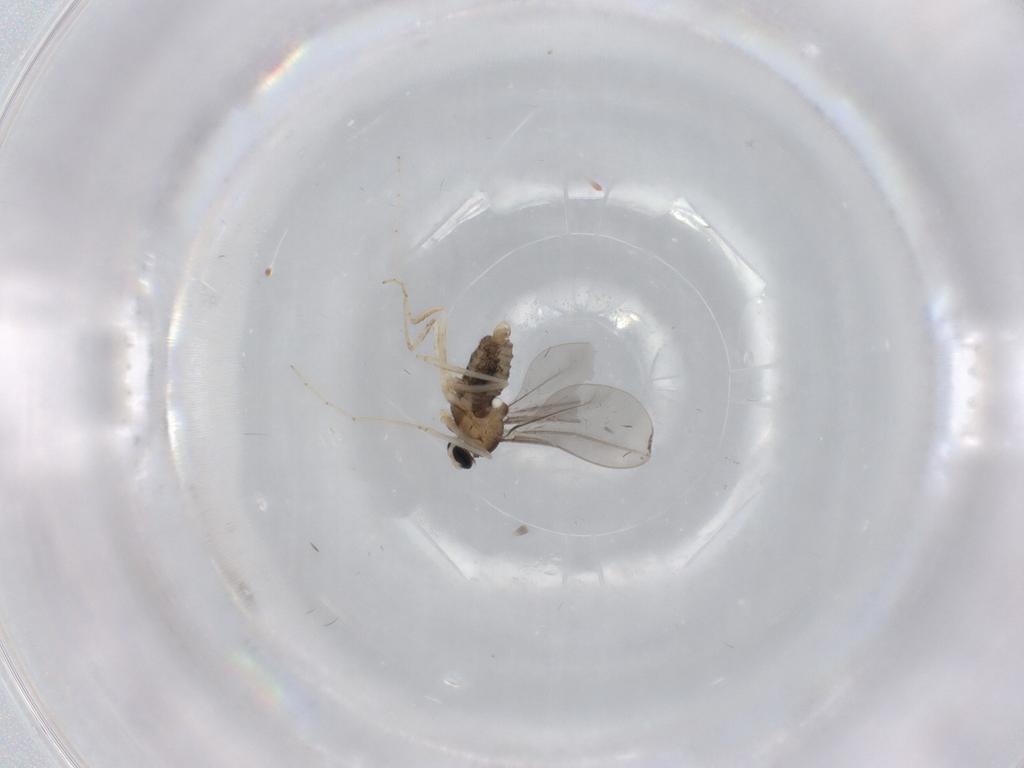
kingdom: Animalia
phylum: Arthropoda
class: Insecta
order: Diptera
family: Cecidomyiidae
